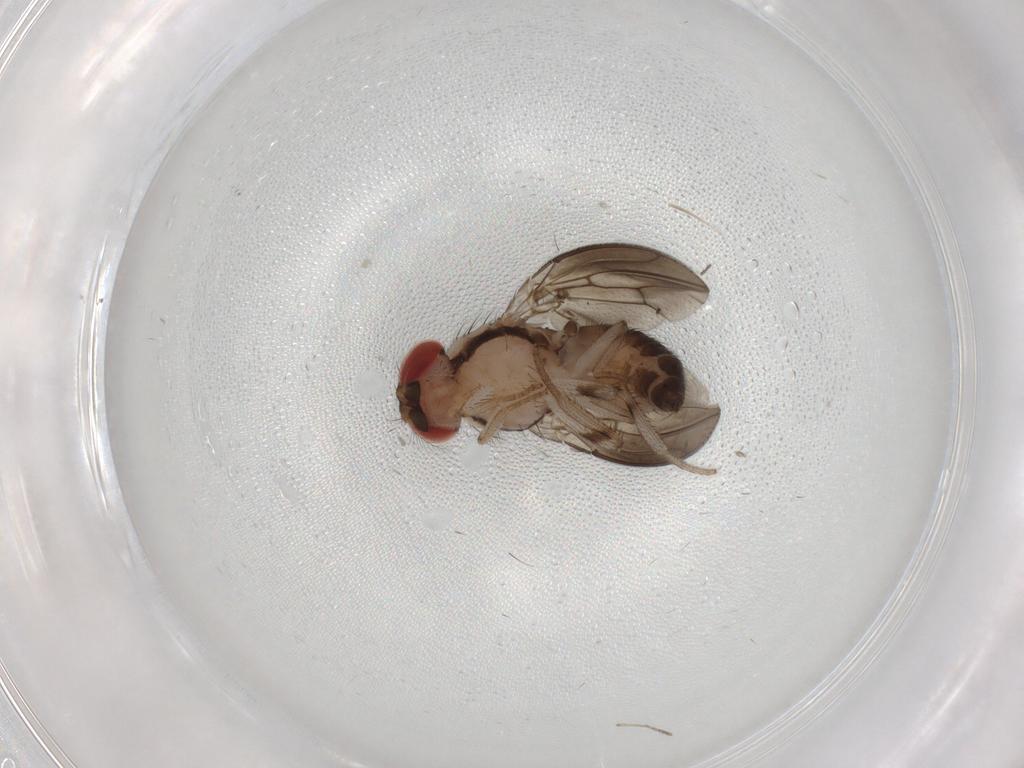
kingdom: Animalia
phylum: Arthropoda
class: Insecta
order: Diptera
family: Drosophilidae
